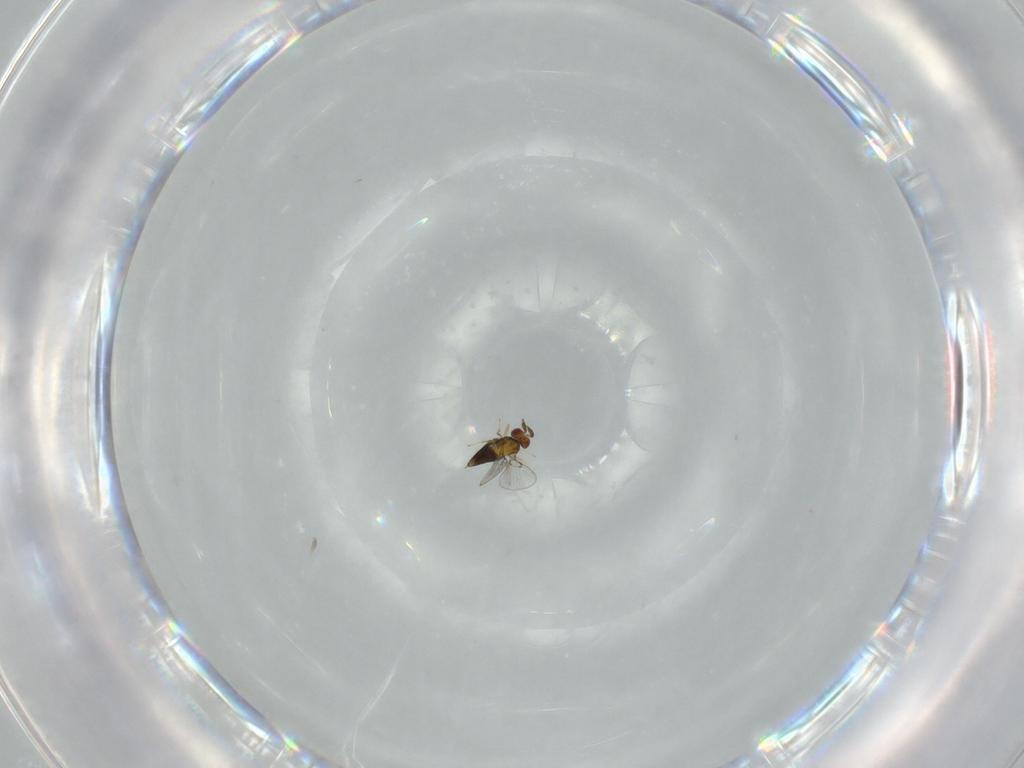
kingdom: Animalia
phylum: Arthropoda
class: Insecta
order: Hymenoptera
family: Trichogrammatidae
